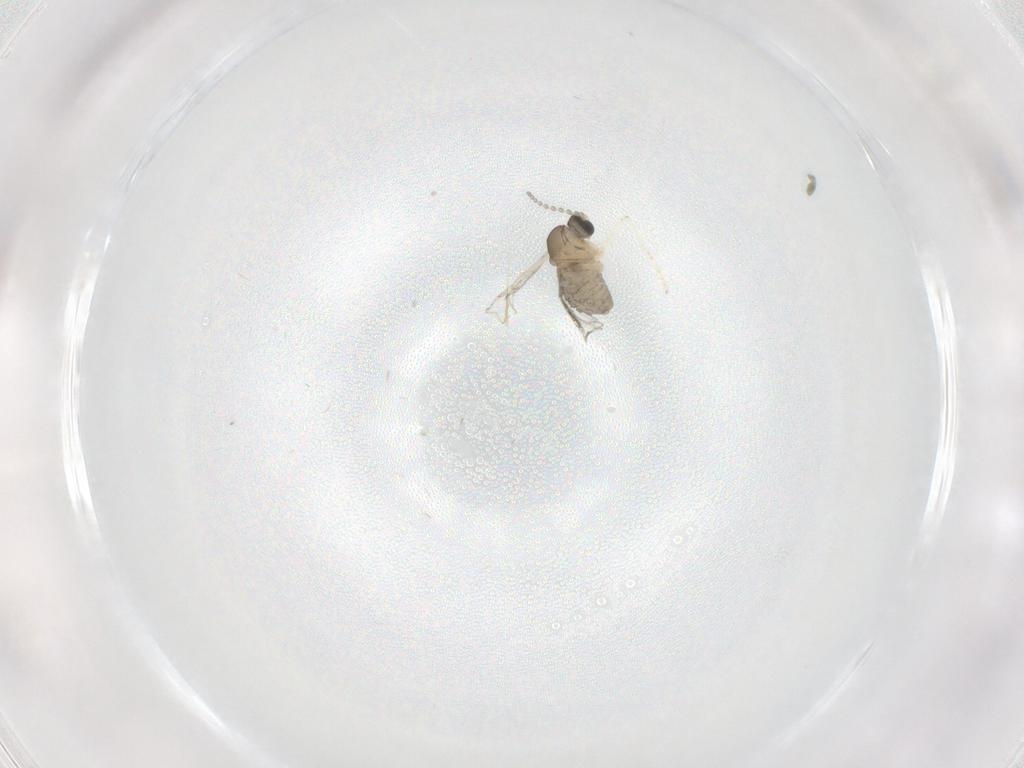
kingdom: Animalia
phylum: Arthropoda
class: Insecta
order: Diptera
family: Cecidomyiidae
